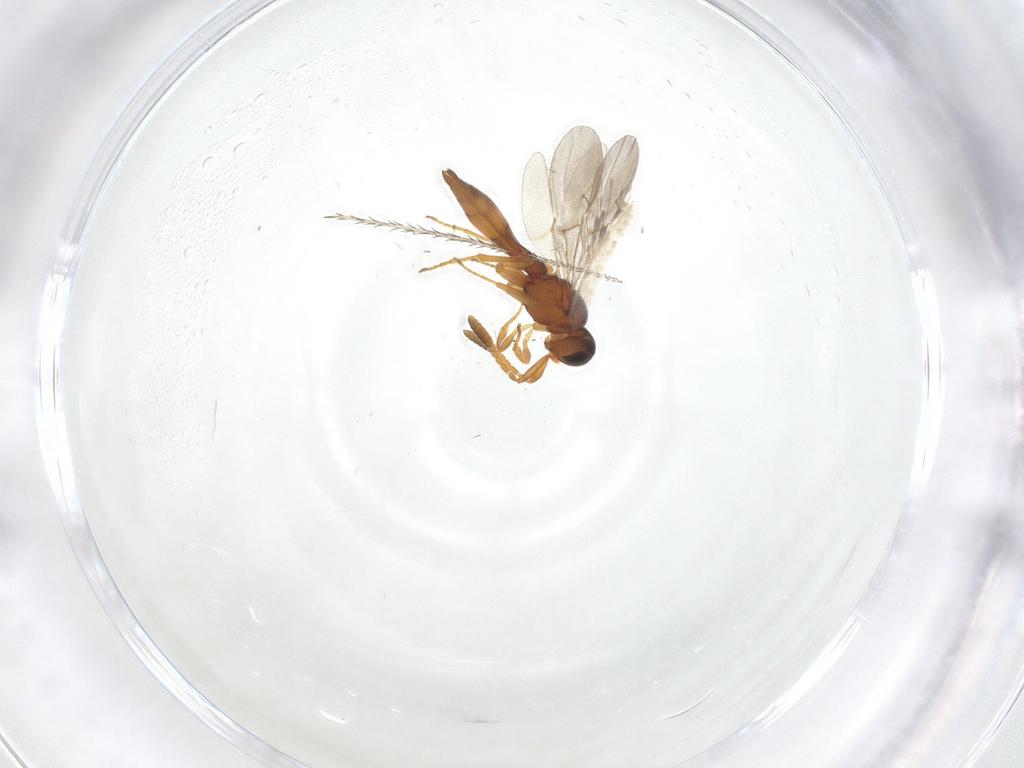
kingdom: Animalia
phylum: Arthropoda
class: Insecta
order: Hymenoptera
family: Scelionidae
